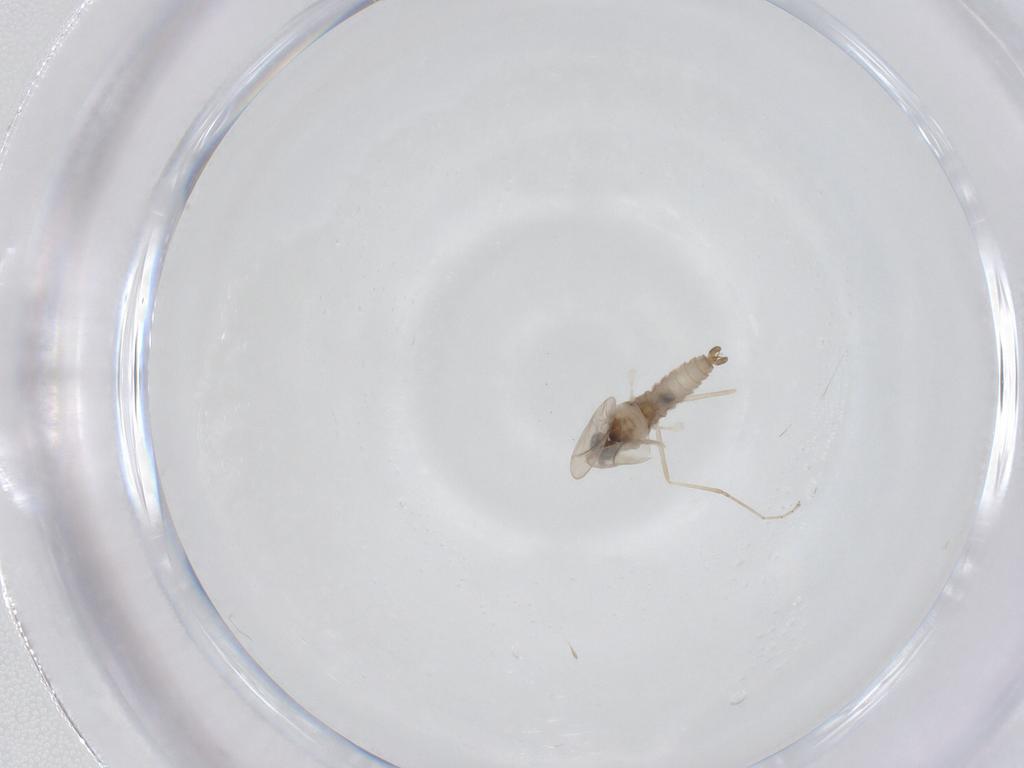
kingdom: Animalia
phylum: Arthropoda
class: Insecta
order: Diptera
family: Cecidomyiidae
